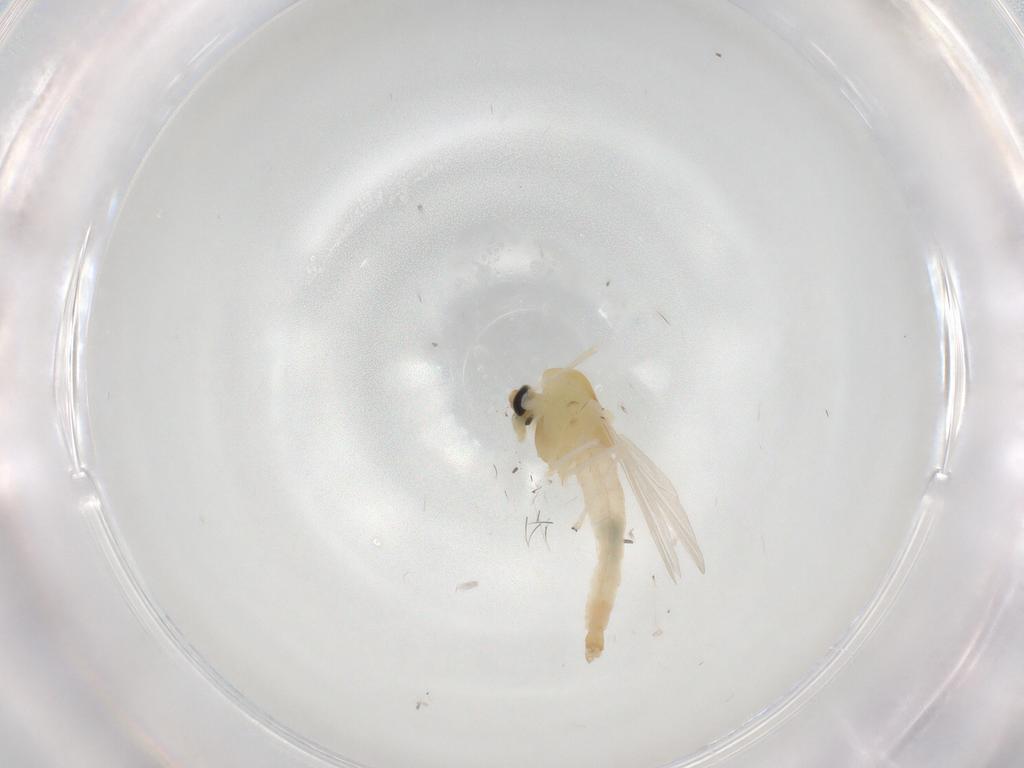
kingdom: Animalia
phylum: Arthropoda
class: Insecta
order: Diptera
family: Chironomidae
